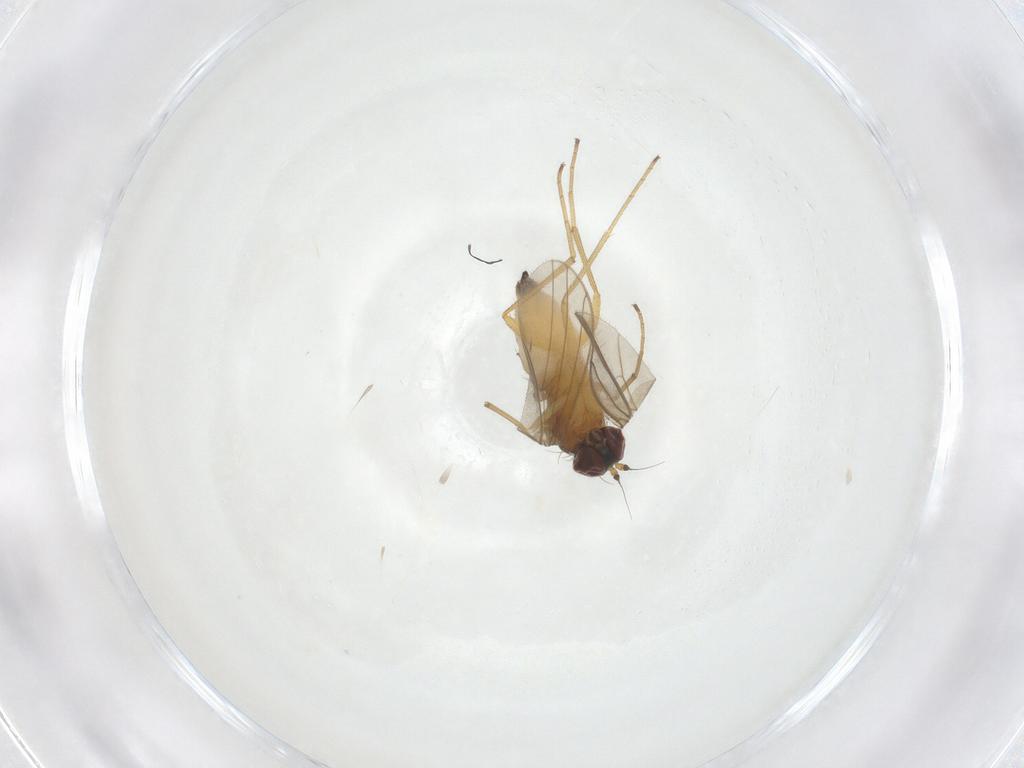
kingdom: Animalia
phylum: Arthropoda
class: Insecta
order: Diptera
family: Dolichopodidae
